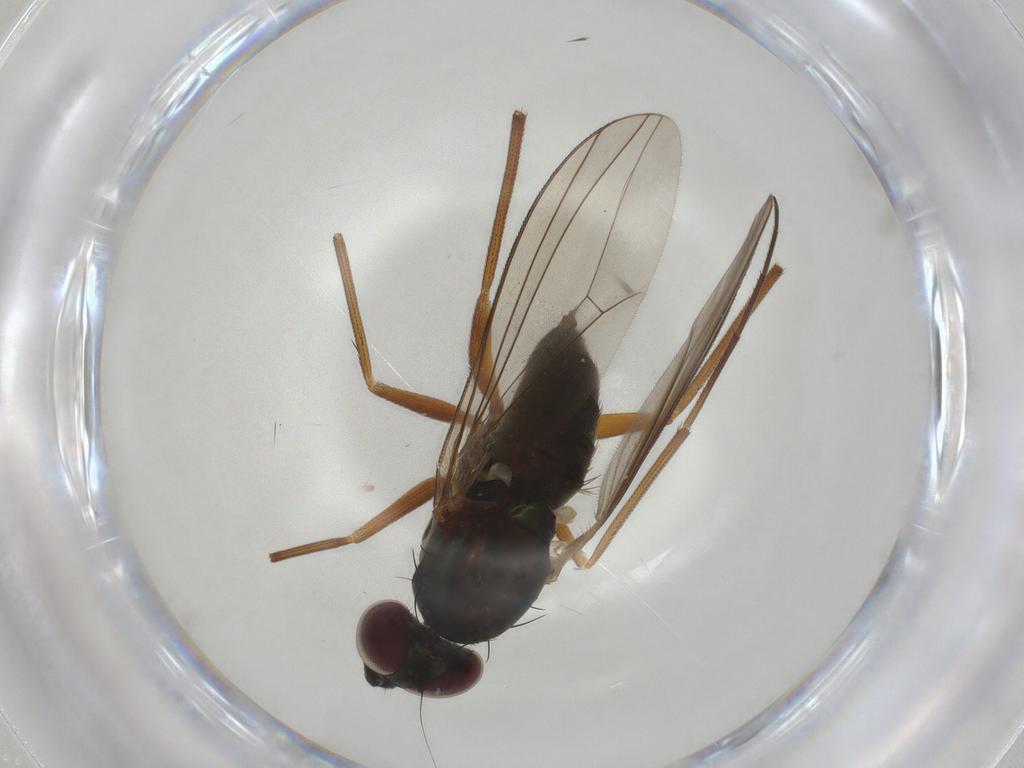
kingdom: Animalia
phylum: Arthropoda
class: Insecta
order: Diptera
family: Dolichopodidae
